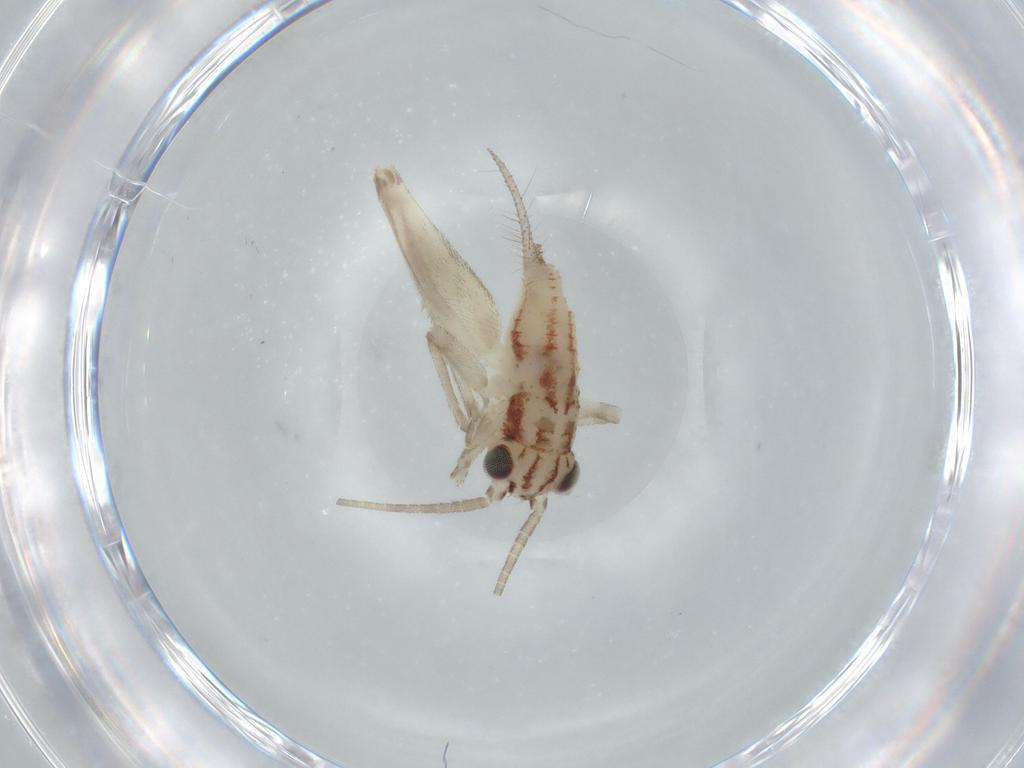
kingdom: Animalia
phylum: Arthropoda
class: Insecta
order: Orthoptera
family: Trigonidiidae
